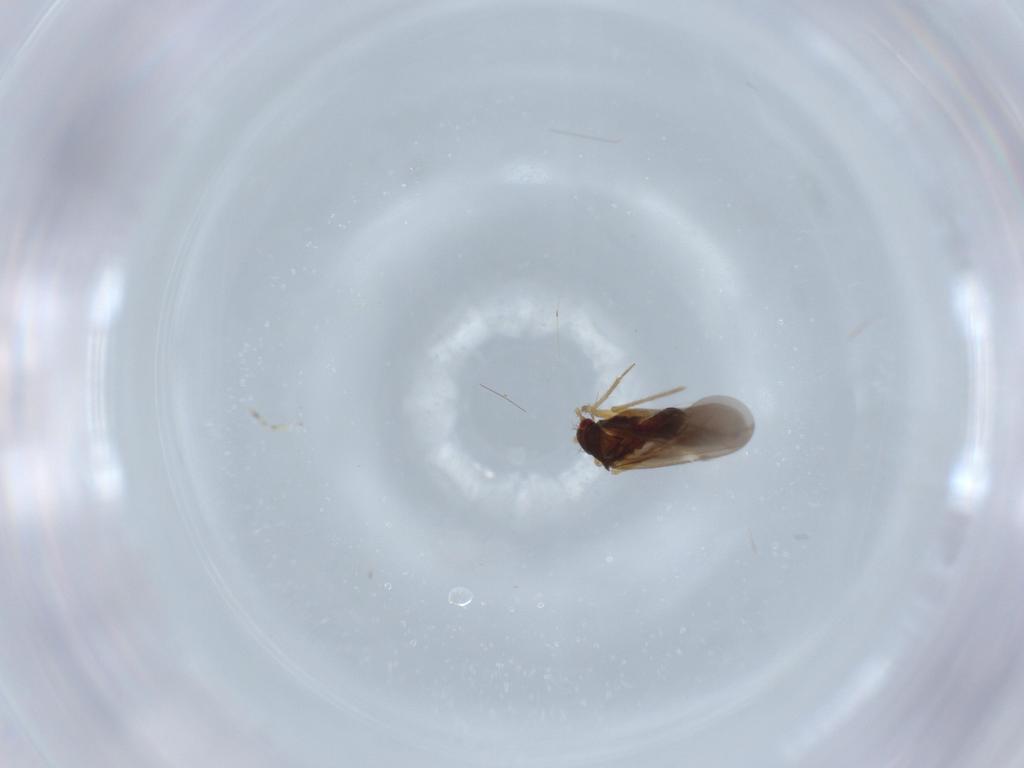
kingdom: Animalia
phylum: Arthropoda
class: Insecta
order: Hemiptera
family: Ceratocombidae
